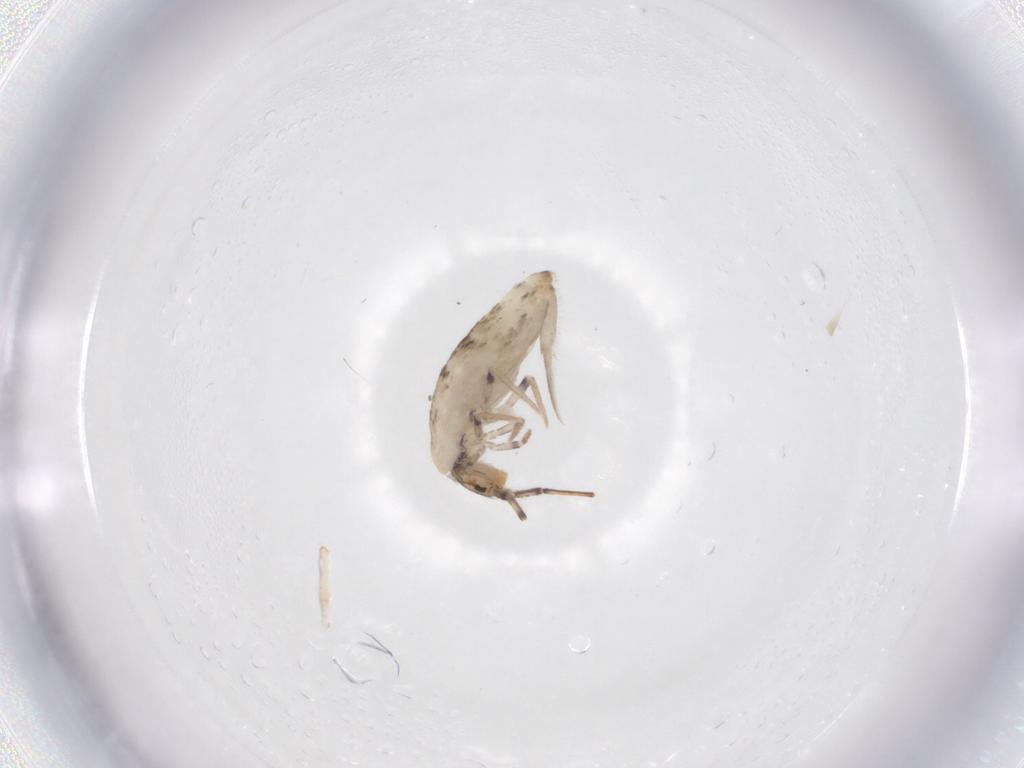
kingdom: Animalia
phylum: Arthropoda
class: Collembola
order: Entomobryomorpha
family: Entomobryidae
